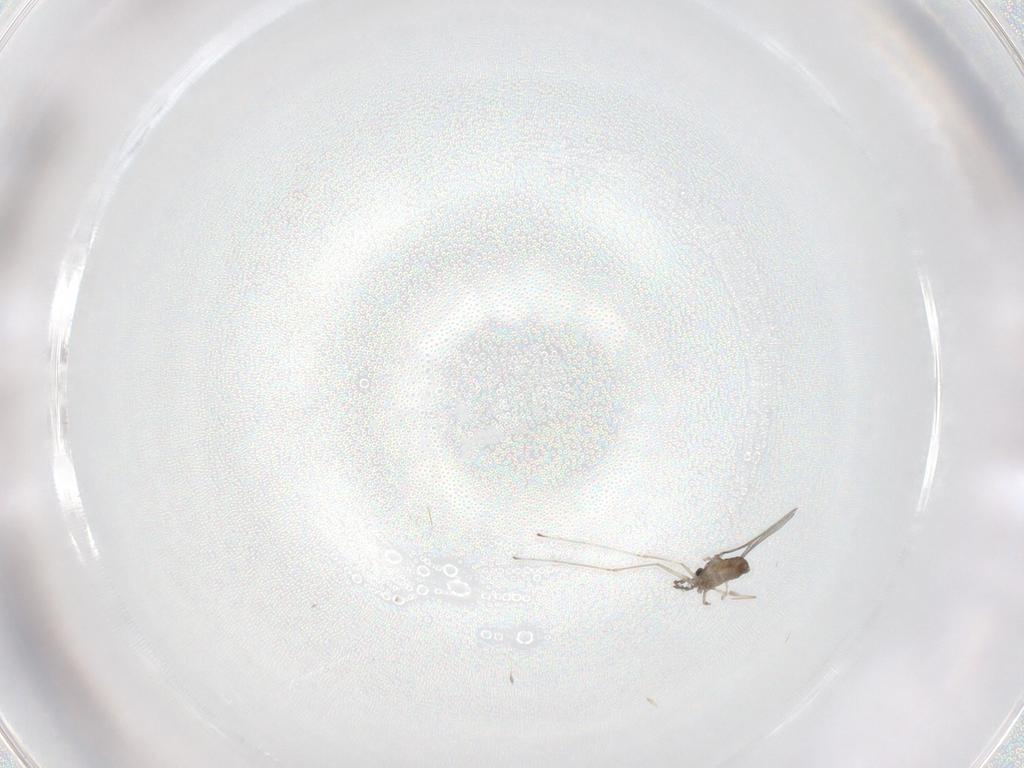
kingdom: Animalia
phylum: Arthropoda
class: Insecta
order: Diptera
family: Cecidomyiidae
